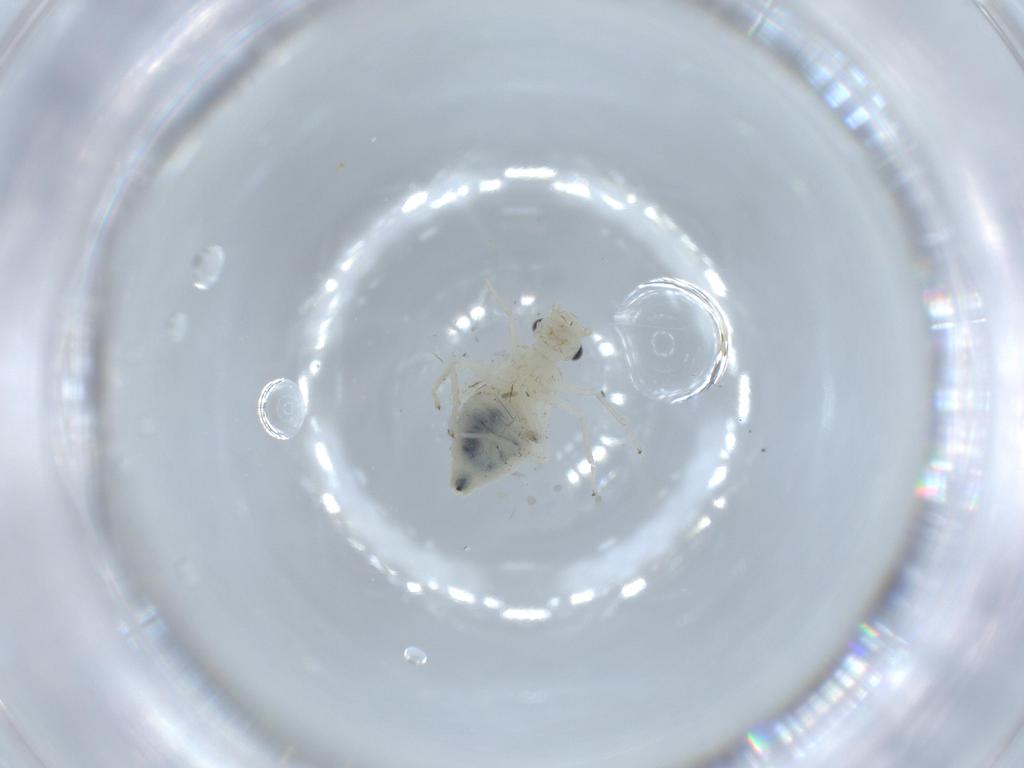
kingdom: Animalia
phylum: Arthropoda
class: Insecta
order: Psocodea
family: Caeciliusidae
